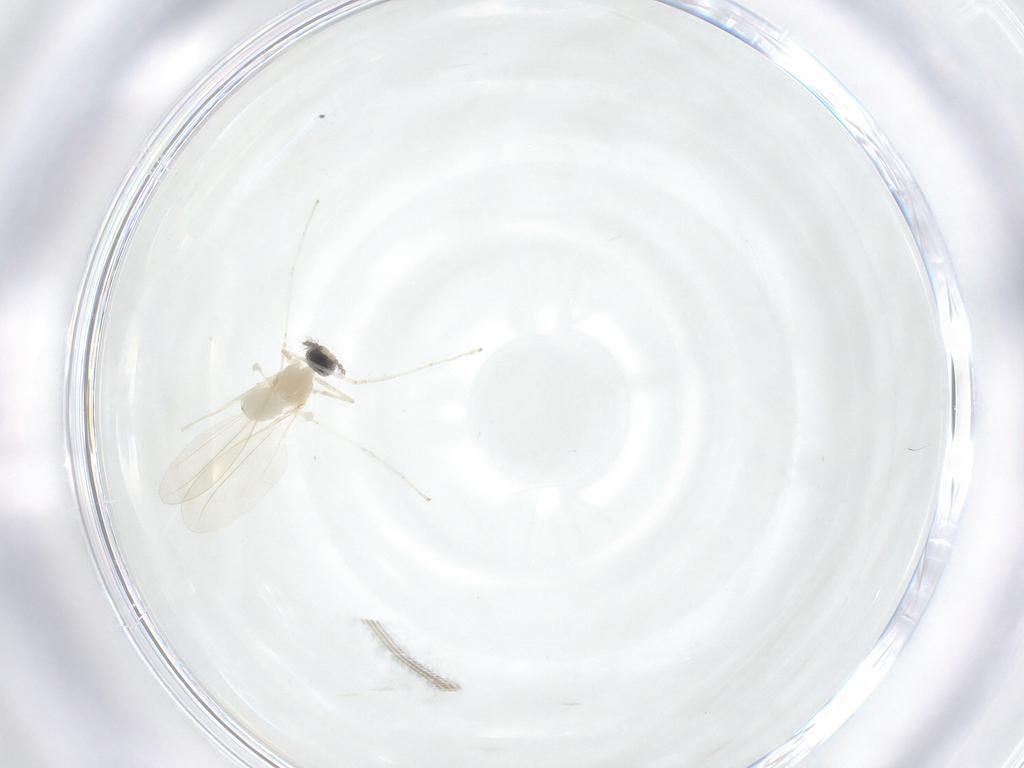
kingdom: Animalia
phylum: Arthropoda
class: Insecta
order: Diptera
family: Cecidomyiidae
